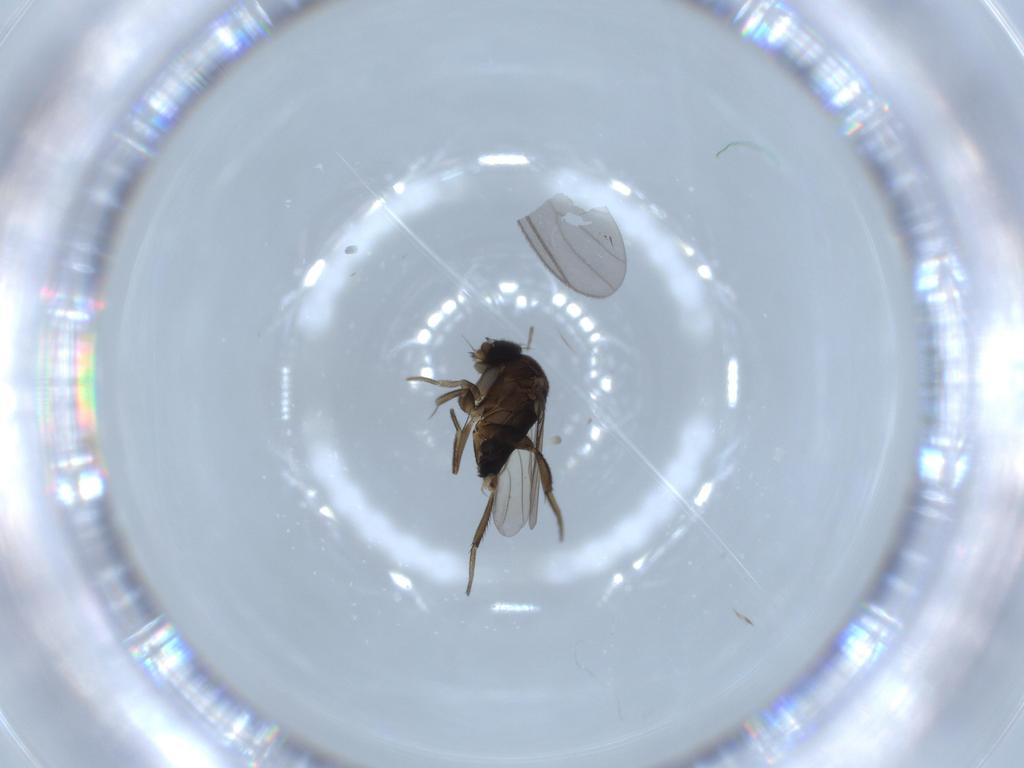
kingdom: Animalia
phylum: Arthropoda
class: Insecta
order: Diptera
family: Phoridae
